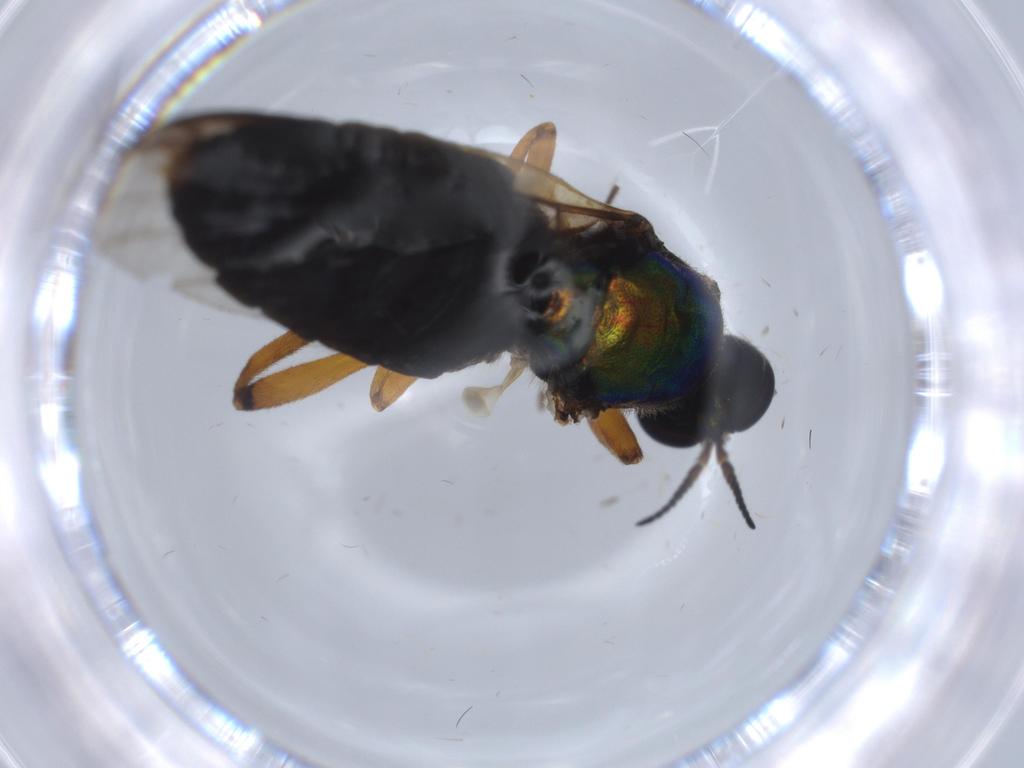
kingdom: Animalia
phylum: Arthropoda
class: Insecta
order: Diptera
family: Stratiomyidae
